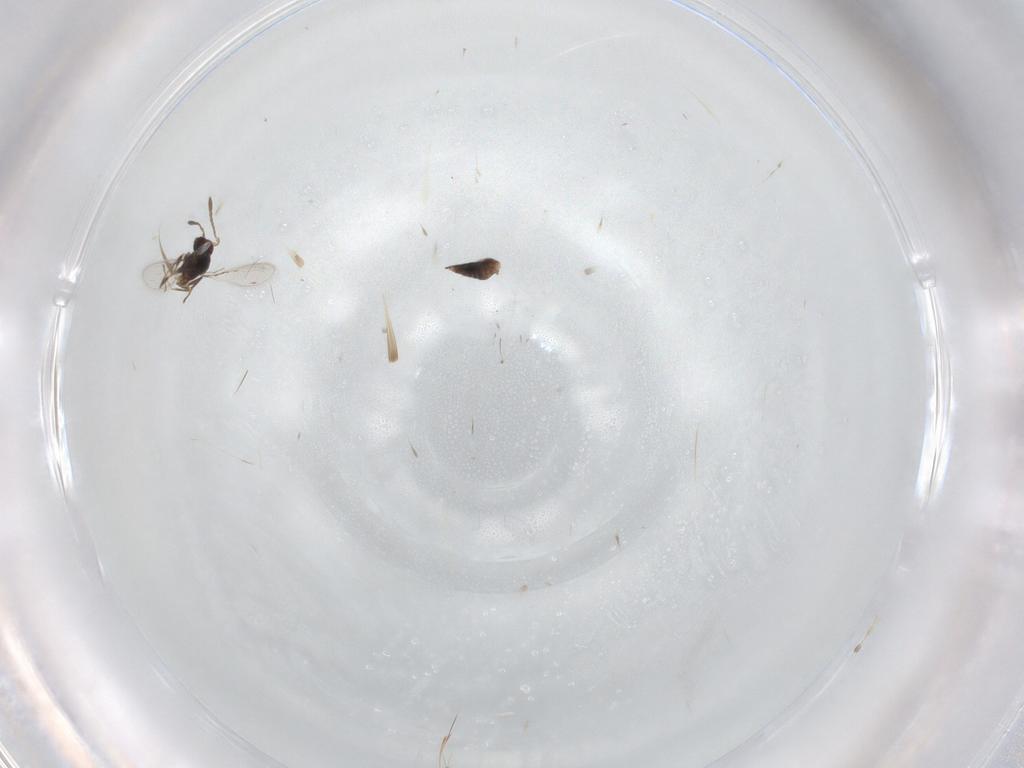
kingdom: Animalia
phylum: Arthropoda
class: Insecta
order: Hymenoptera
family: Mymaridae
